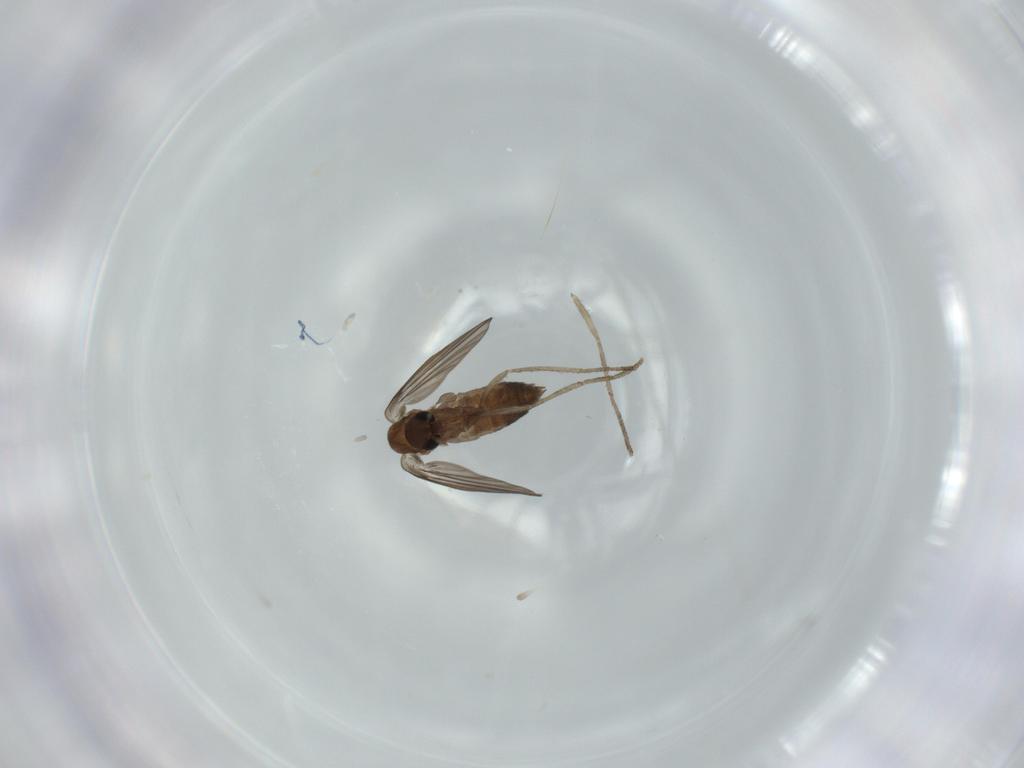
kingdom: Animalia
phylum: Arthropoda
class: Insecta
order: Diptera
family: Cecidomyiidae
